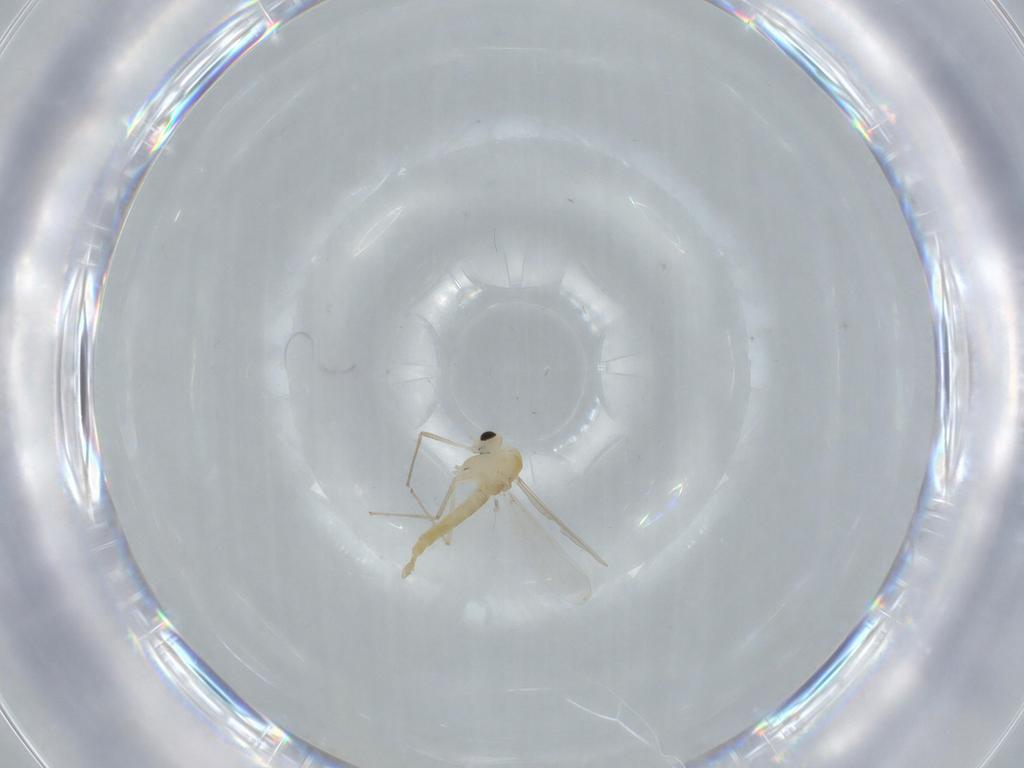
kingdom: Animalia
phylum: Arthropoda
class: Insecta
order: Diptera
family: Chironomidae
